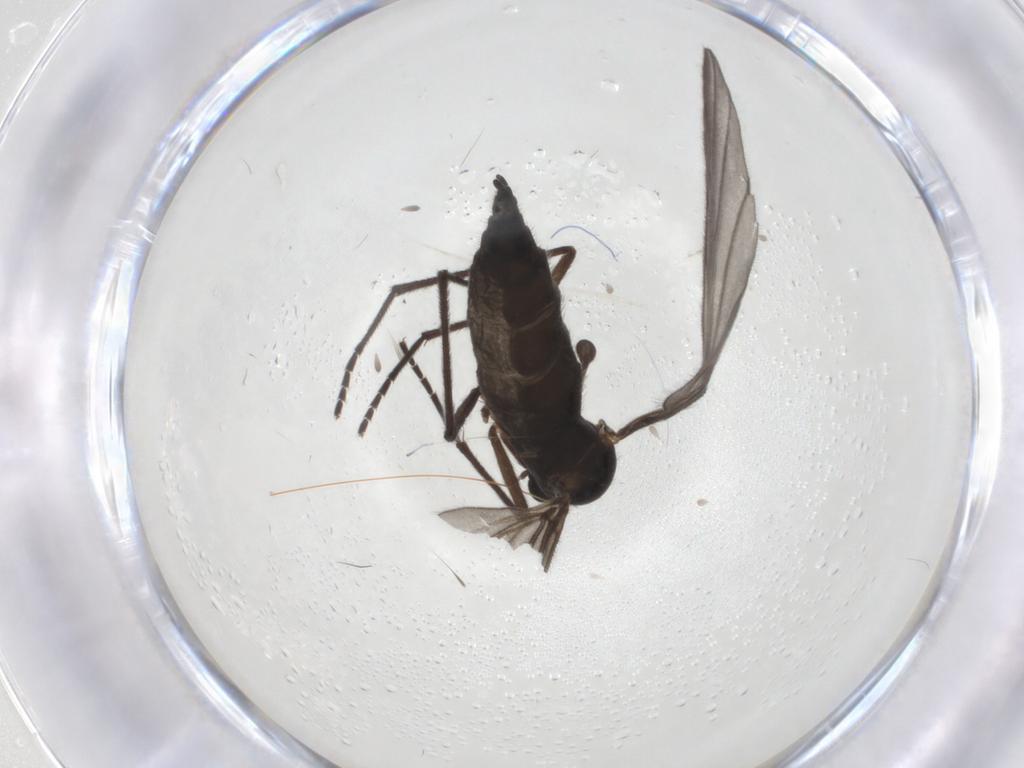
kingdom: Animalia
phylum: Arthropoda
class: Insecta
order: Diptera
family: Sciaridae
